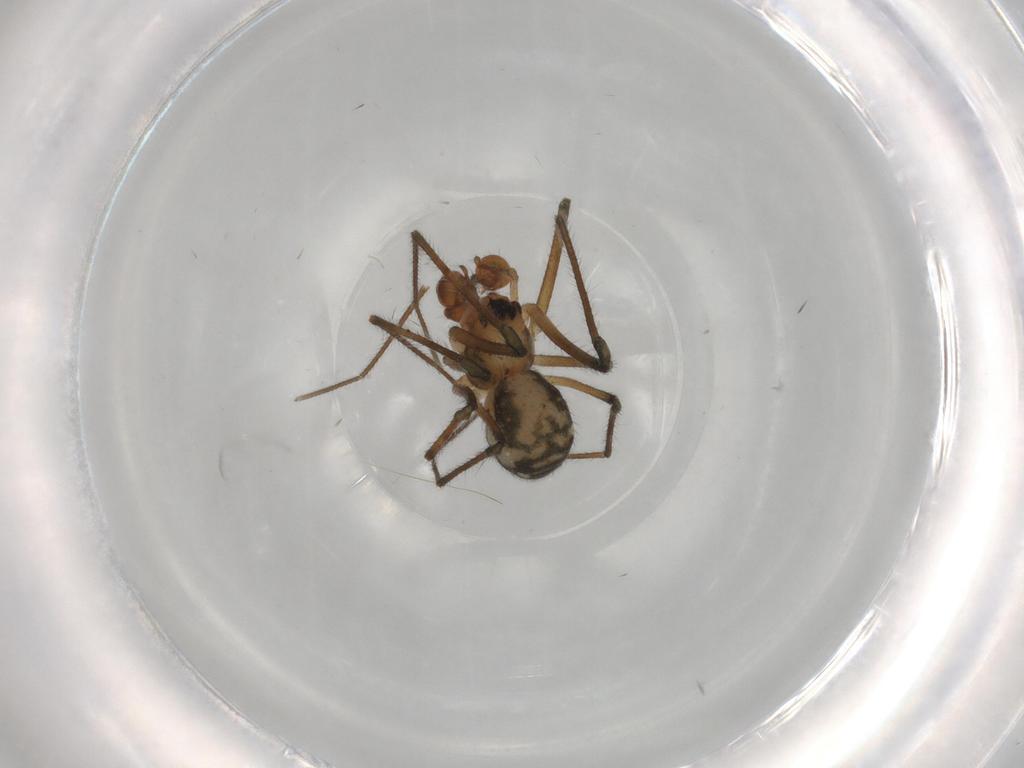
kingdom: Animalia
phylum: Arthropoda
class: Arachnida
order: Araneae
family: Tetragnathidae
